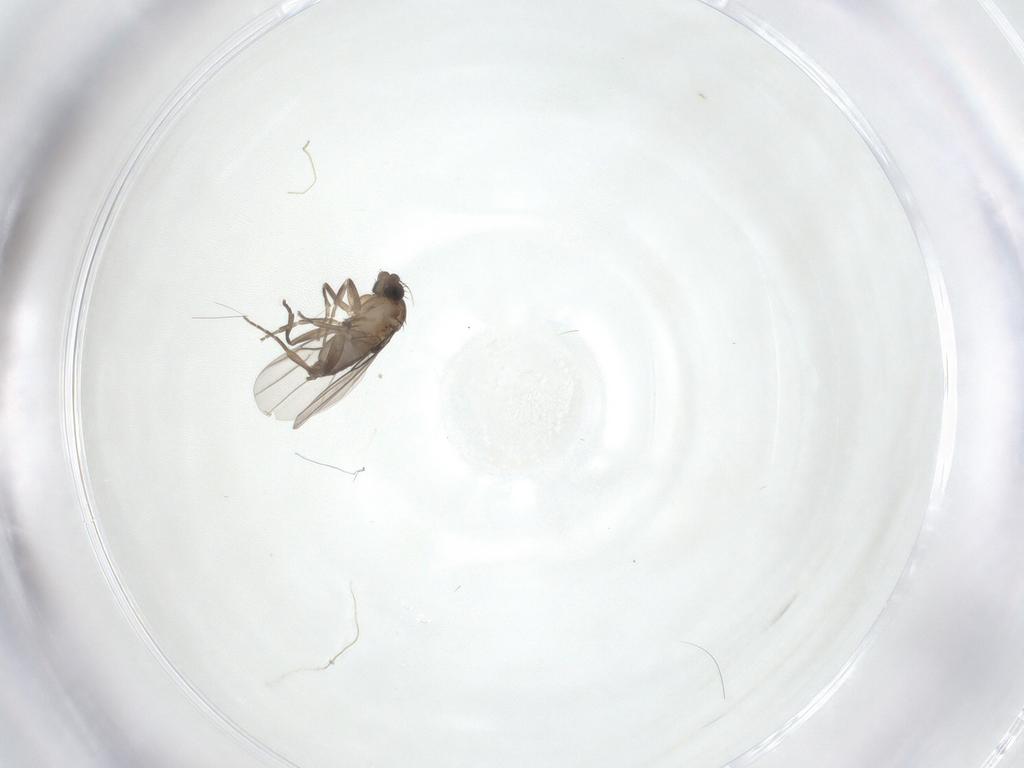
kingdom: Animalia
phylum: Arthropoda
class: Insecta
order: Diptera
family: Phoridae
